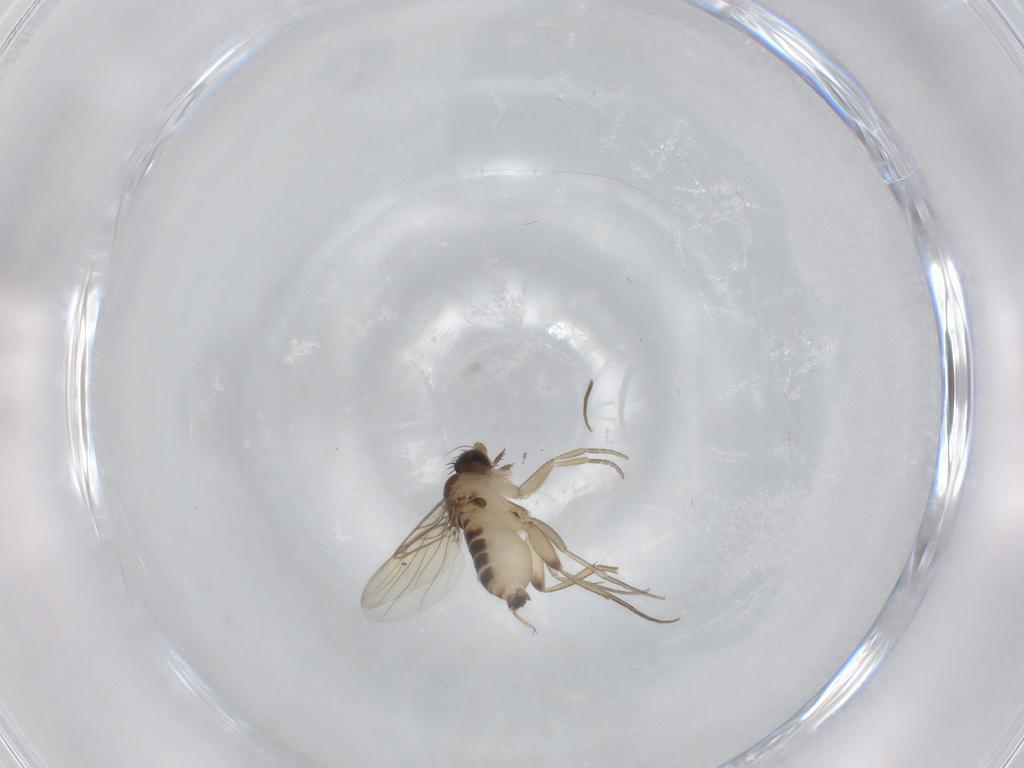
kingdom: Animalia
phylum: Arthropoda
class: Insecta
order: Diptera
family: Phoridae
